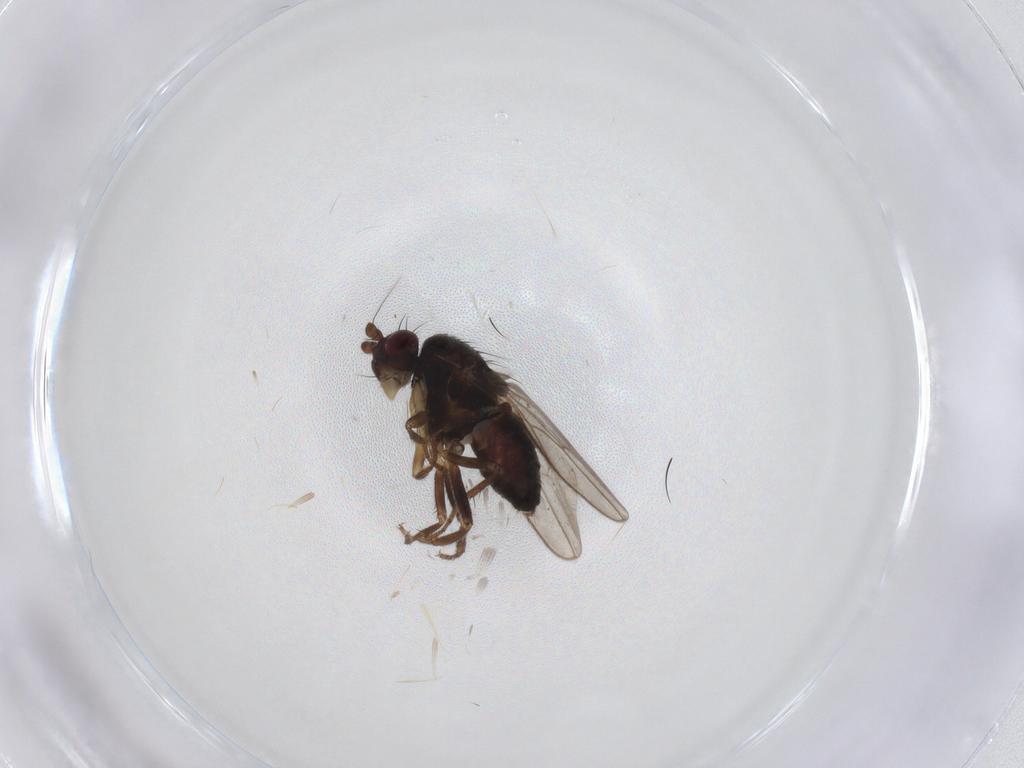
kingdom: Animalia
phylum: Arthropoda
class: Insecta
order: Diptera
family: Sphaeroceridae
